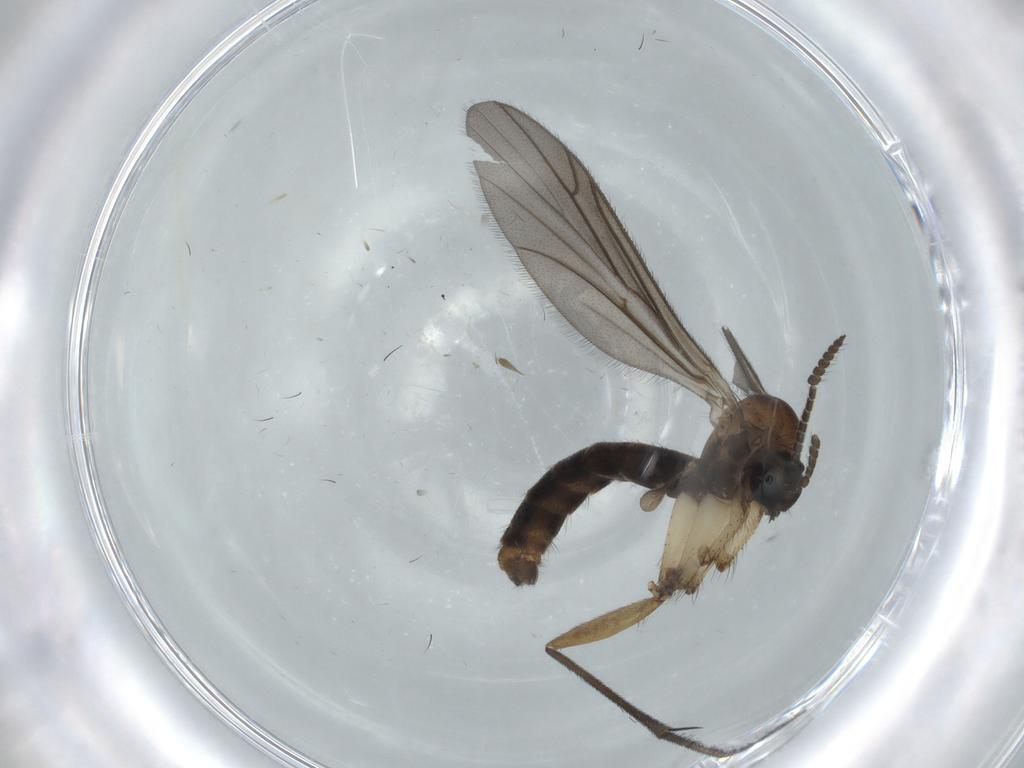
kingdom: Animalia
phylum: Arthropoda
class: Insecta
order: Diptera
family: Ditomyiidae
